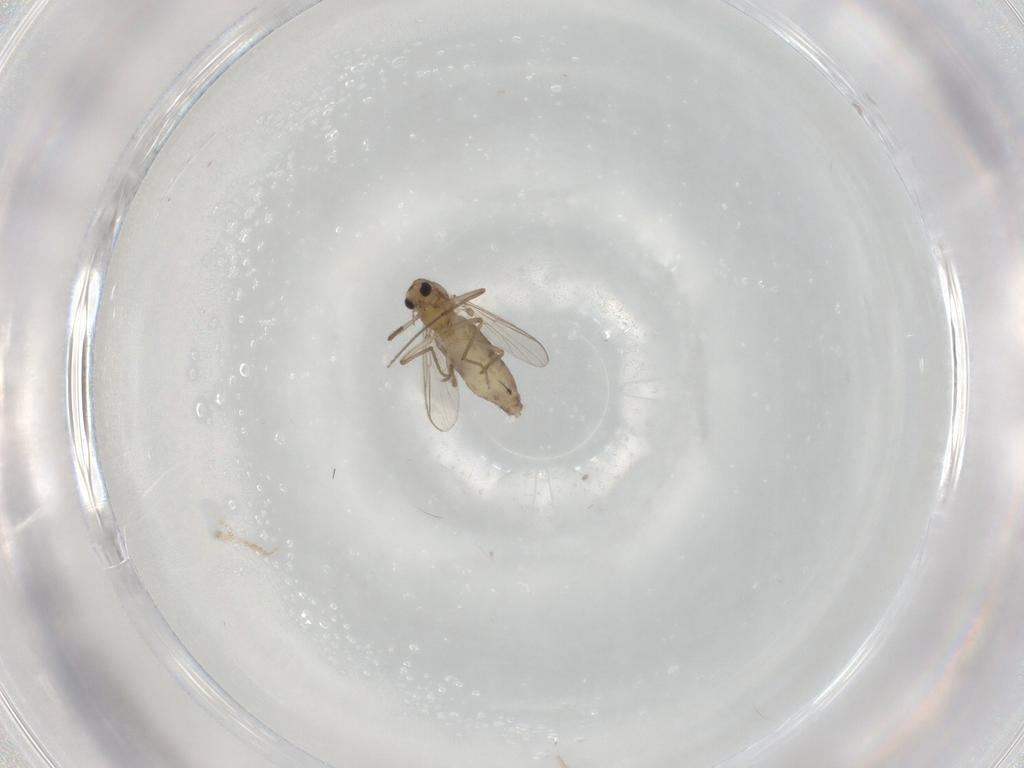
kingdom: Animalia
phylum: Arthropoda
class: Insecta
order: Diptera
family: Chironomidae
